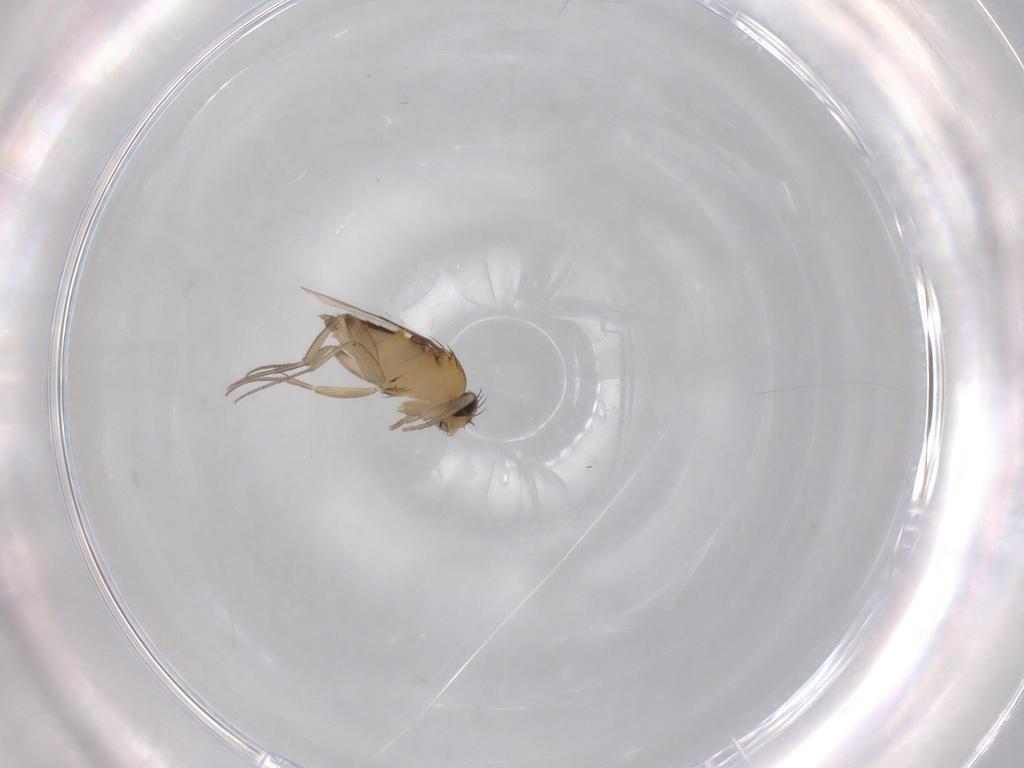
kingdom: Animalia
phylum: Arthropoda
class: Insecta
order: Diptera
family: Phoridae
